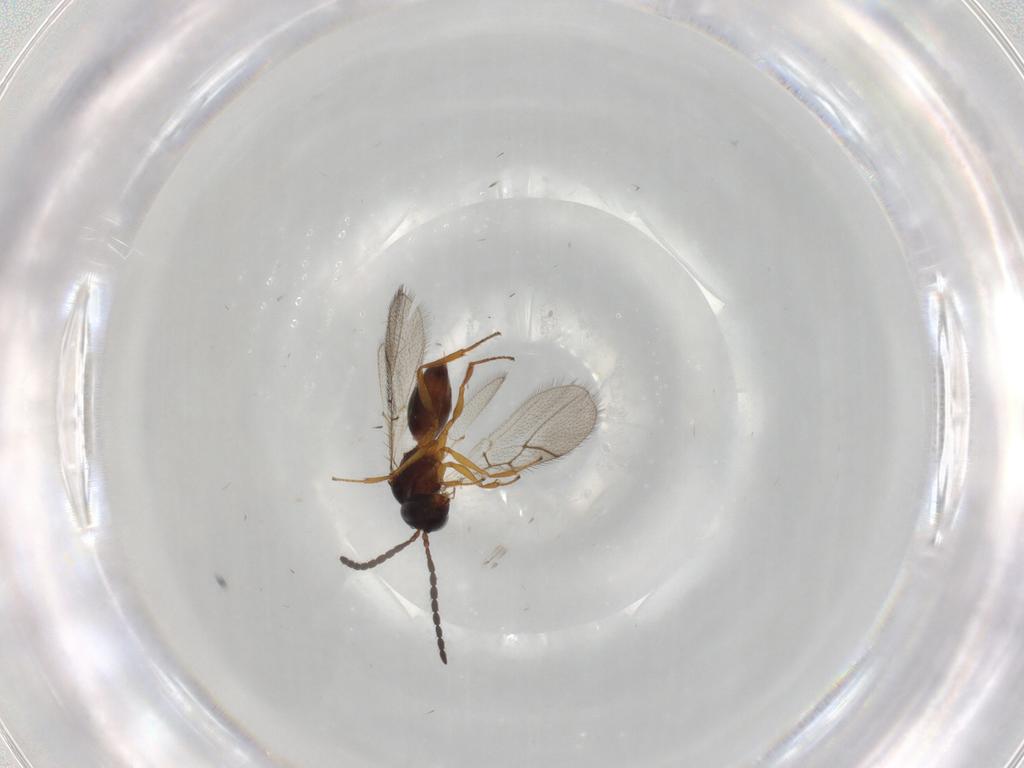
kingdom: Animalia
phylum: Arthropoda
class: Insecta
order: Hymenoptera
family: Figitidae
